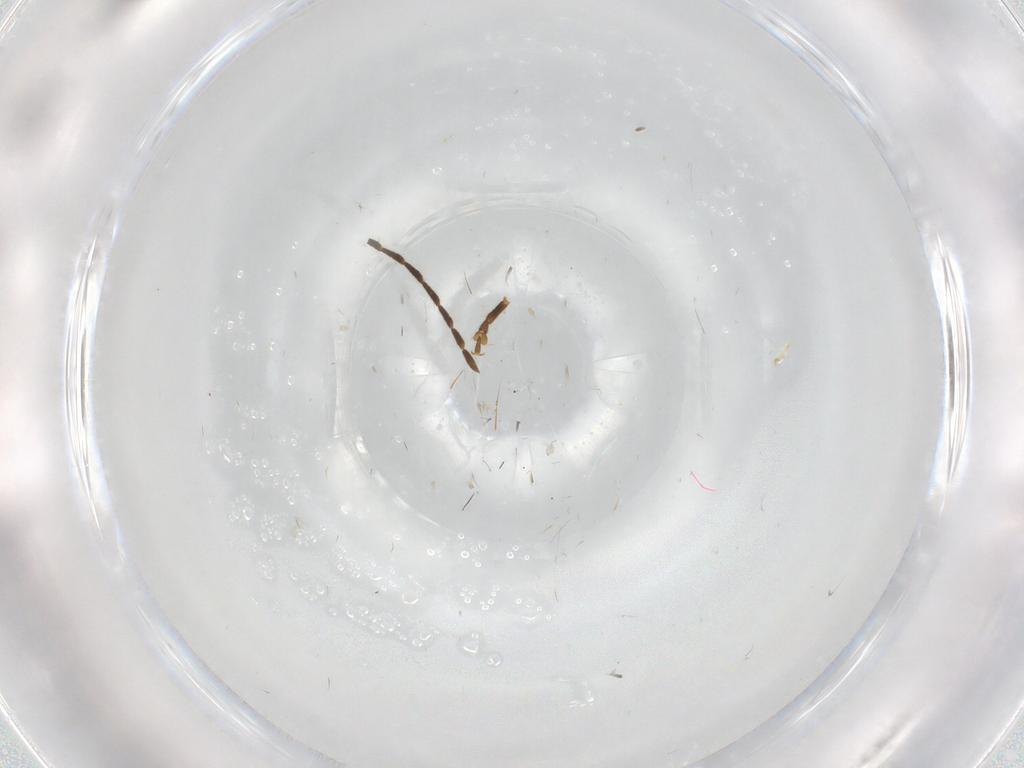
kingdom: Animalia
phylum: Arthropoda
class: Insecta
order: Coleoptera
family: Chrysomelidae
